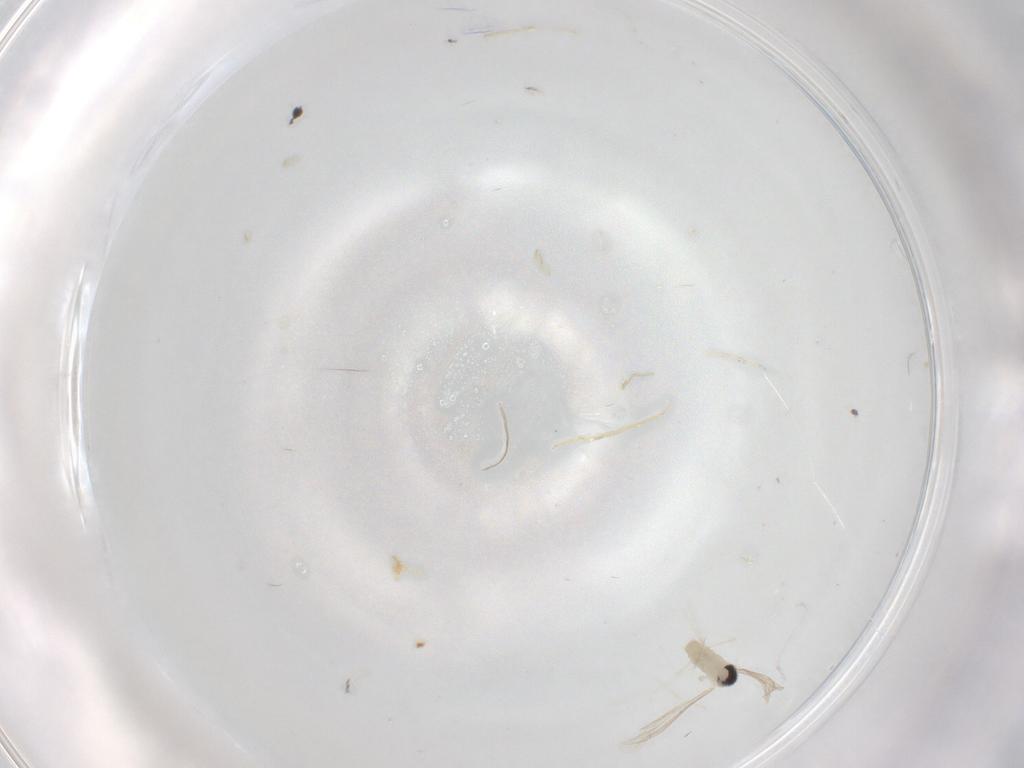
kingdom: Animalia
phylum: Arthropoda
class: Insecta
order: Diptera
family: Cecidomyiidae
